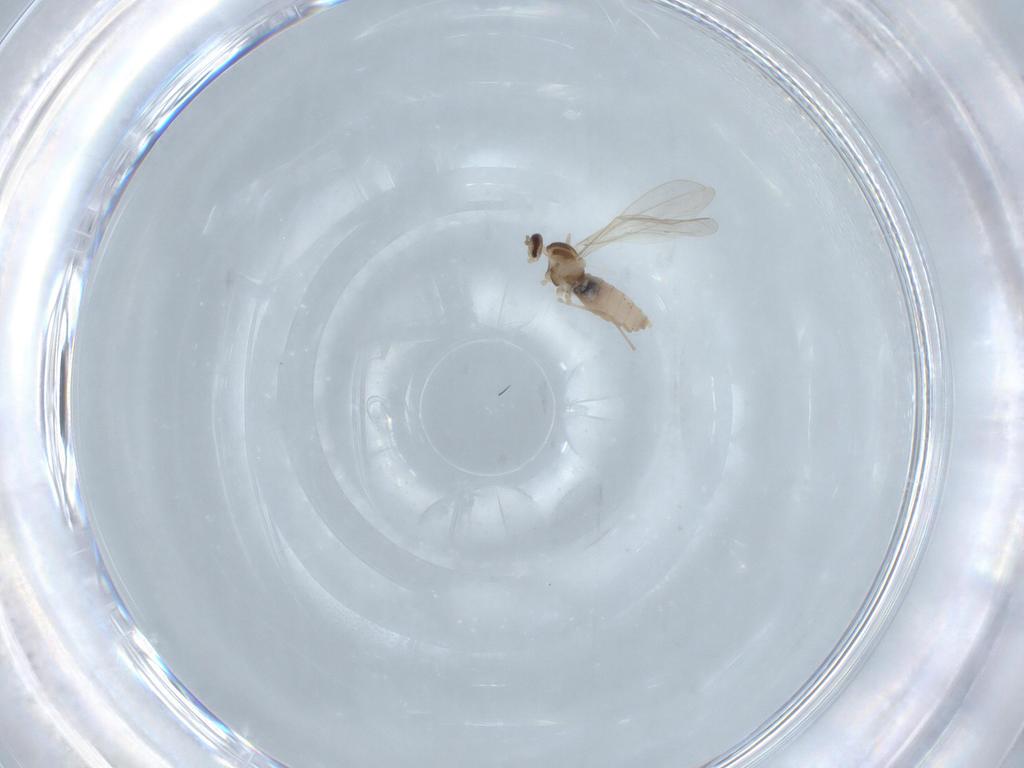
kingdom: Animalia
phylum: Arthropoda
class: Insecta
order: Diptera
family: Cecidomyiidae
